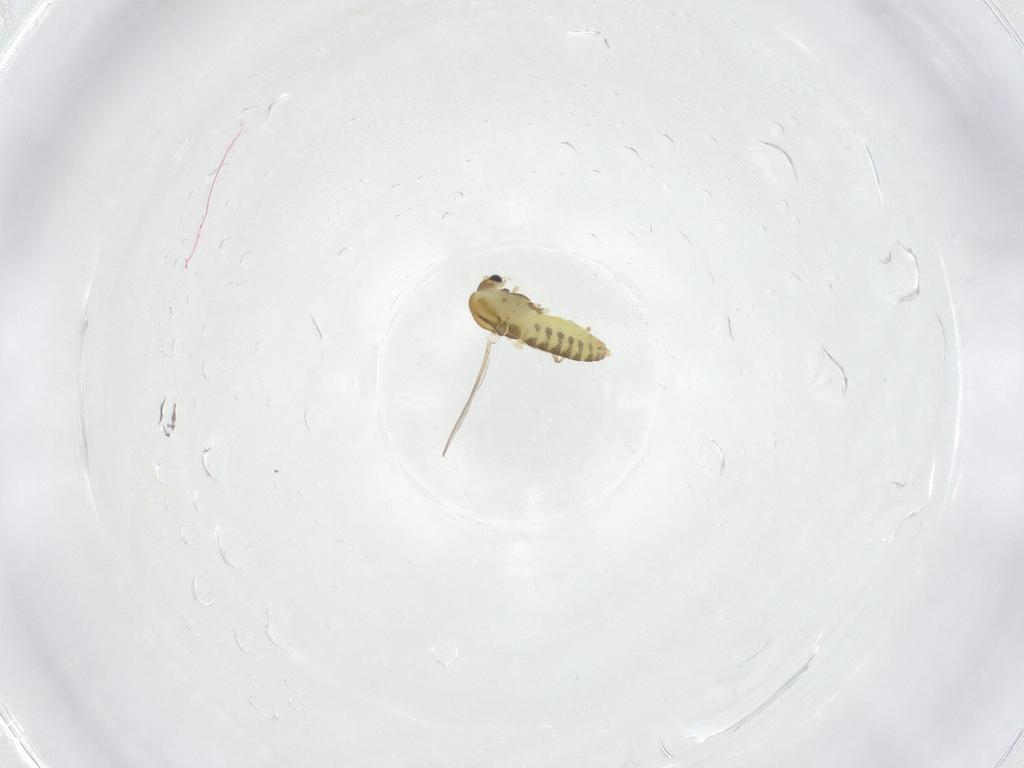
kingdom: Animalia
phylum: Arthropoda
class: Insecta
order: Diptera
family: Chironomidae
